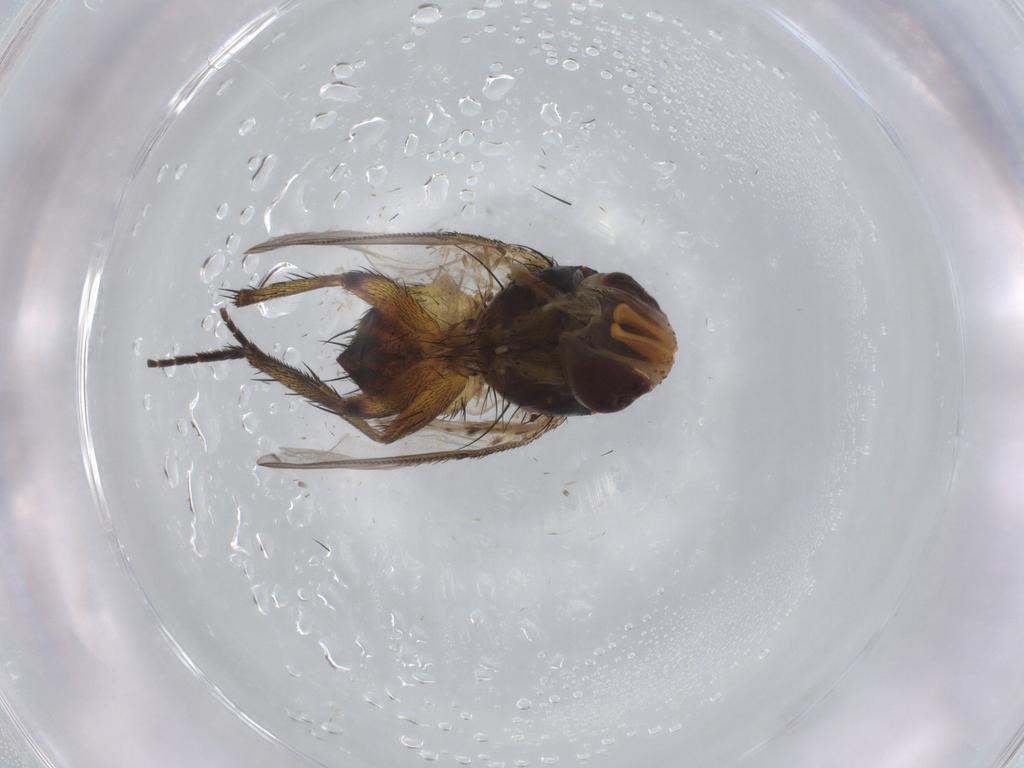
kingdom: Animalia
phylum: Arthropoda
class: Insecta
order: Diptera
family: Cecidomyiidae
